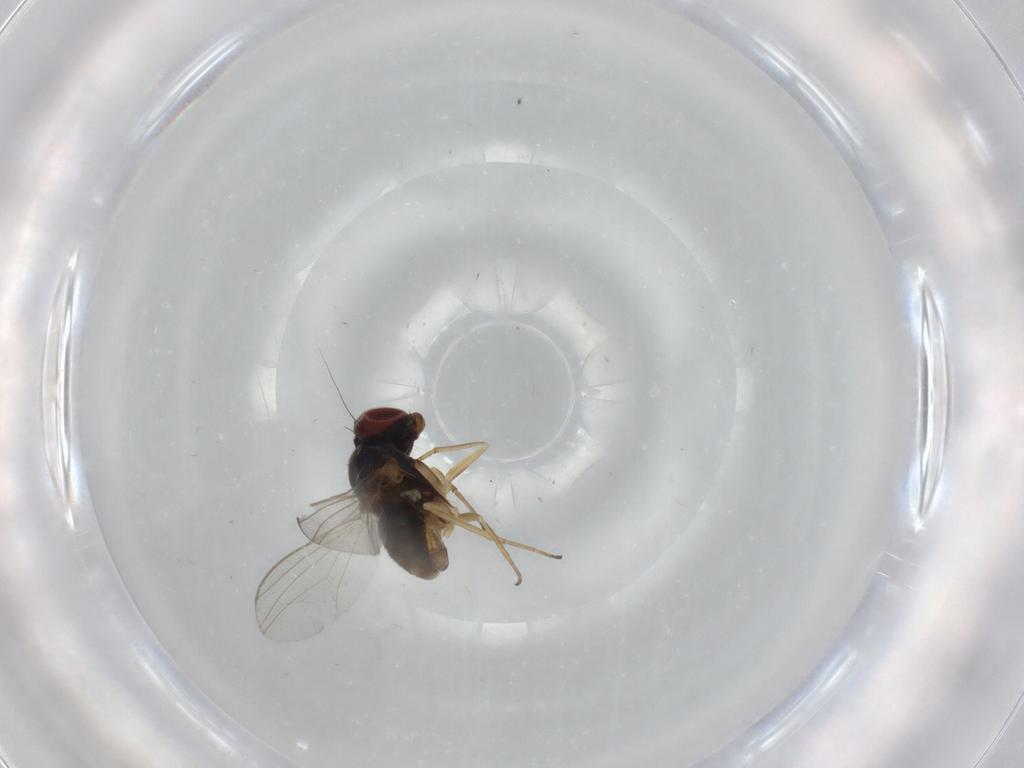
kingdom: Animalia
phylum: Arthropoda
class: Insecta
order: Diptera
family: Dolichopodidae
